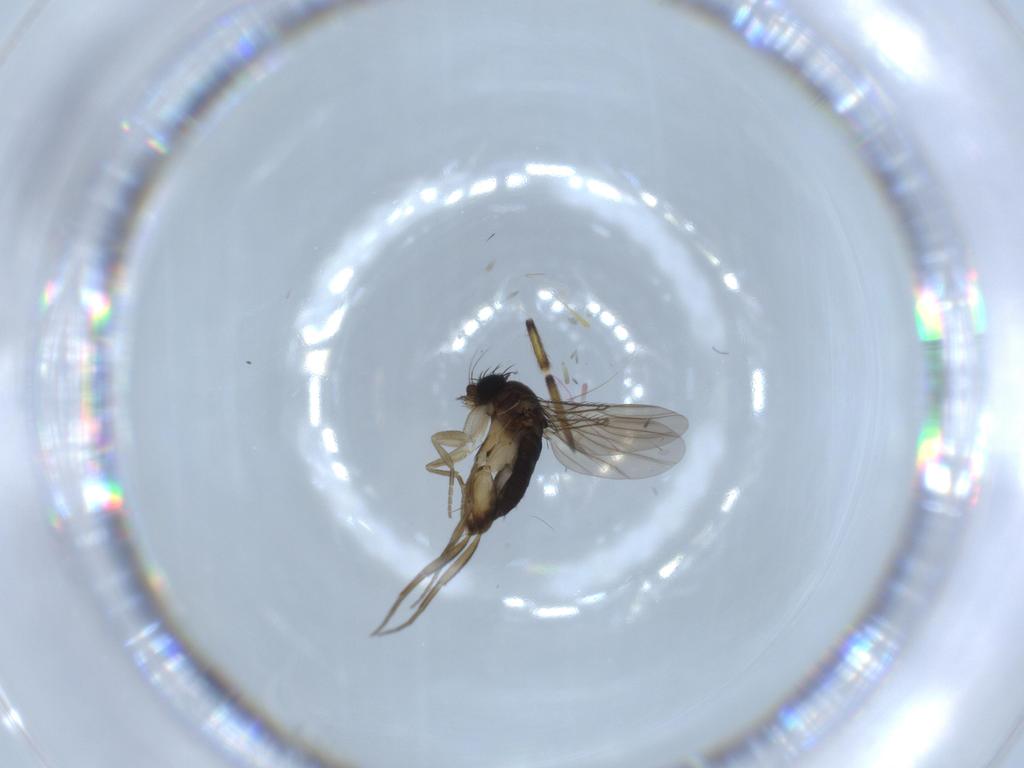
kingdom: Animalia
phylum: Arthropoda
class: Insecta
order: Diptera
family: Phoridae
